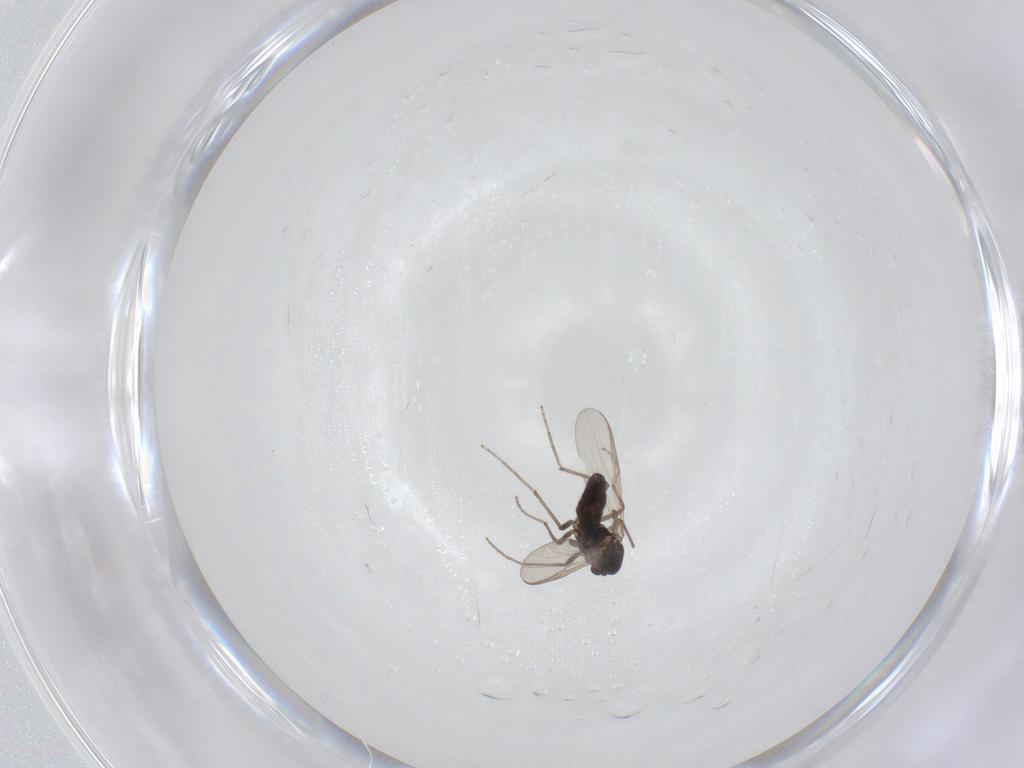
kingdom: Animalia
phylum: Arthropoda
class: Insecta
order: Diptera
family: Chironomidae
